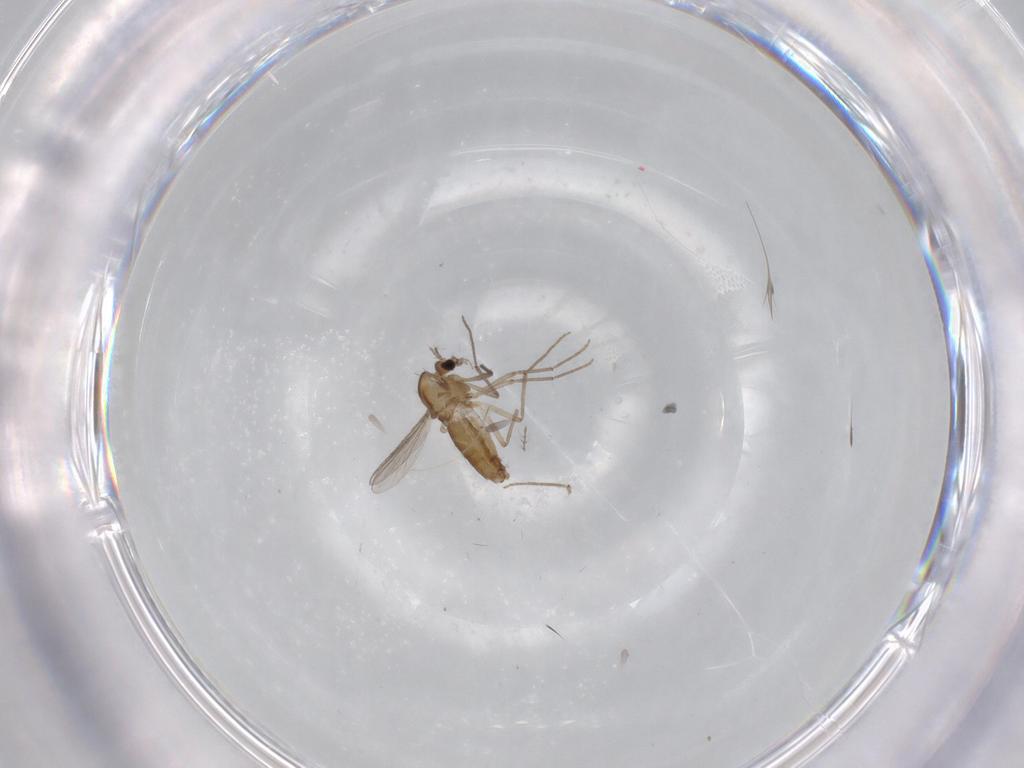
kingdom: Animalia
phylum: Arthropoda
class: Insecta
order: Diptera
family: Chironomidae
